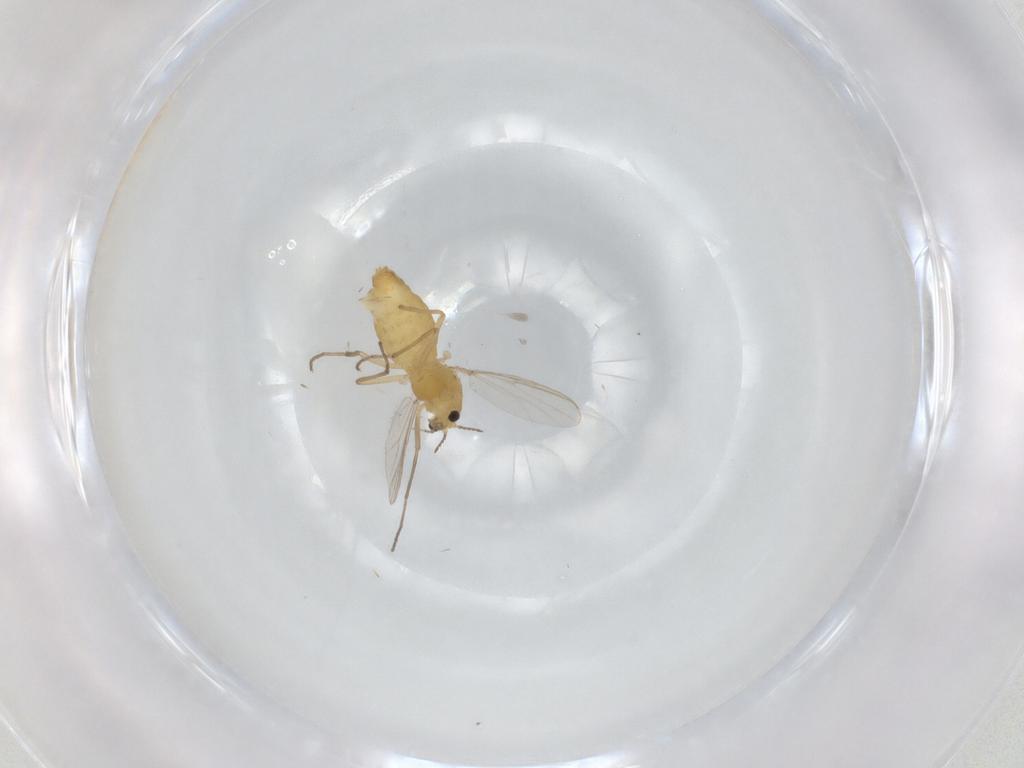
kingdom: Animalia
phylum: Arthropoda
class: Insecta
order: Diptera
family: Chironomidae
